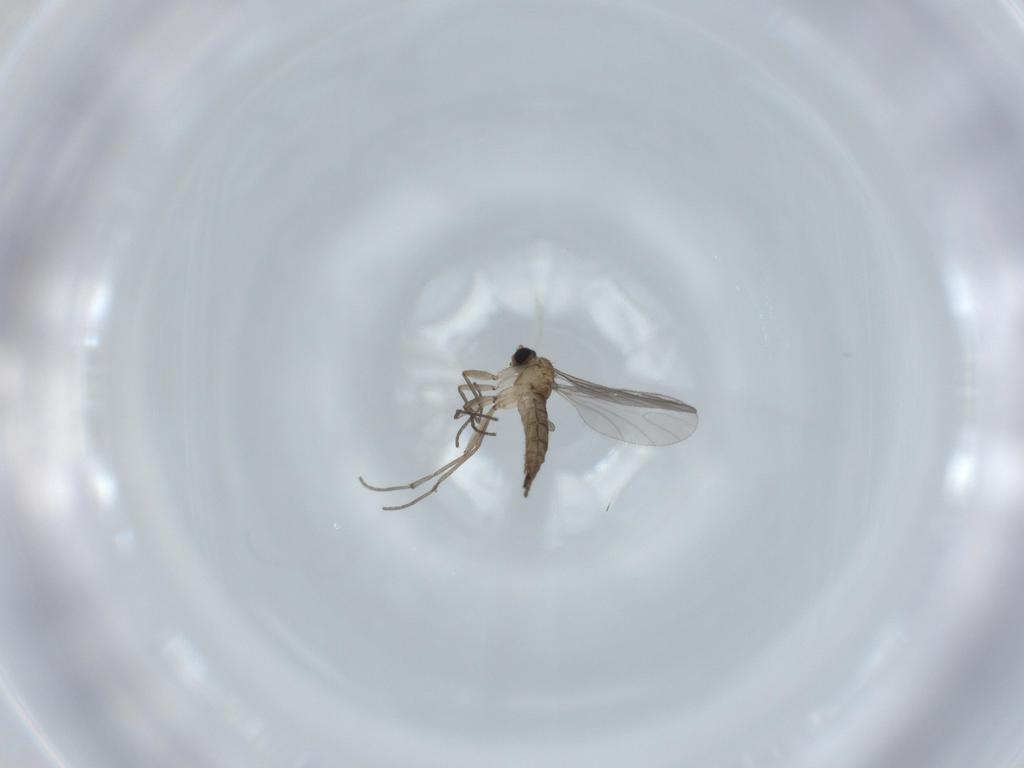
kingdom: Animalia
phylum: Arthropoda
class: Insecta
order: Diptera
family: Sciaridae
